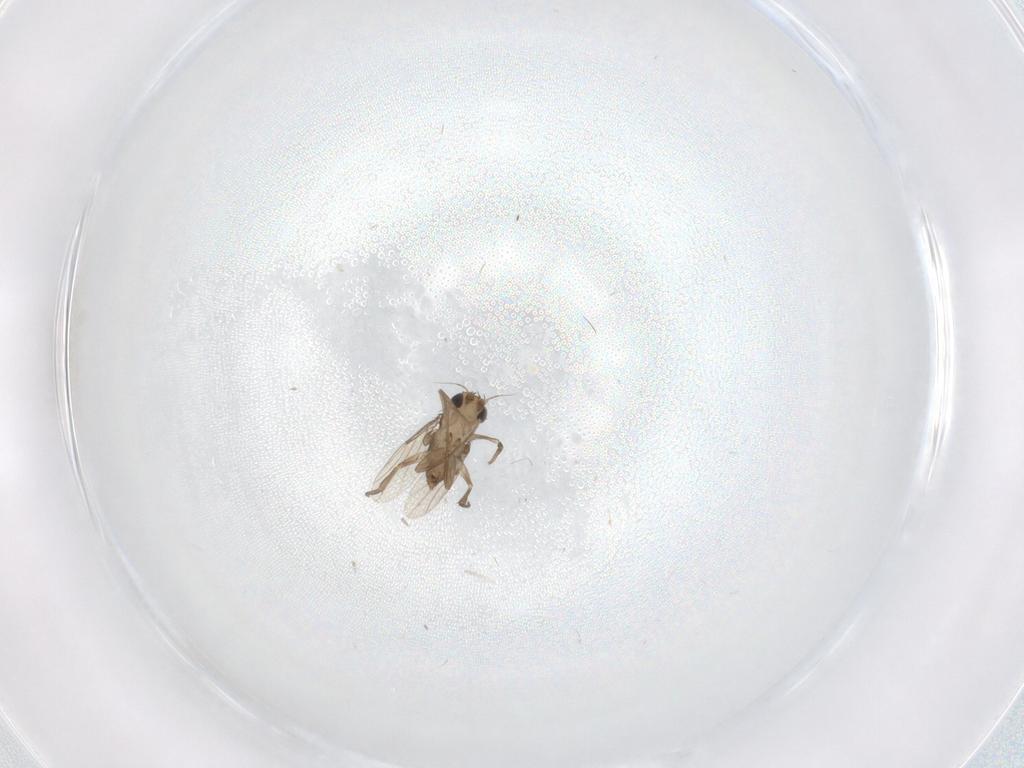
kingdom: Animalia
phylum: Arthropoda
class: Insecta
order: Diptera
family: Phoridae
